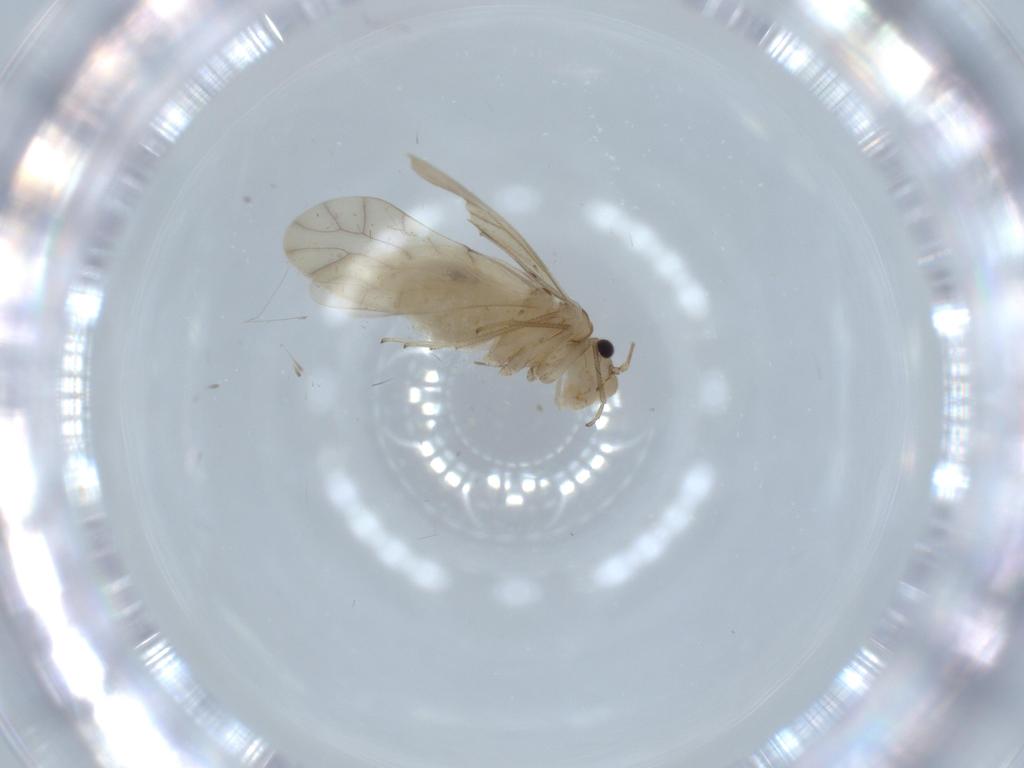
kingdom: Animalia
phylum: Arthropoda
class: Insecta
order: Psocodea
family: Caeciliusidae
